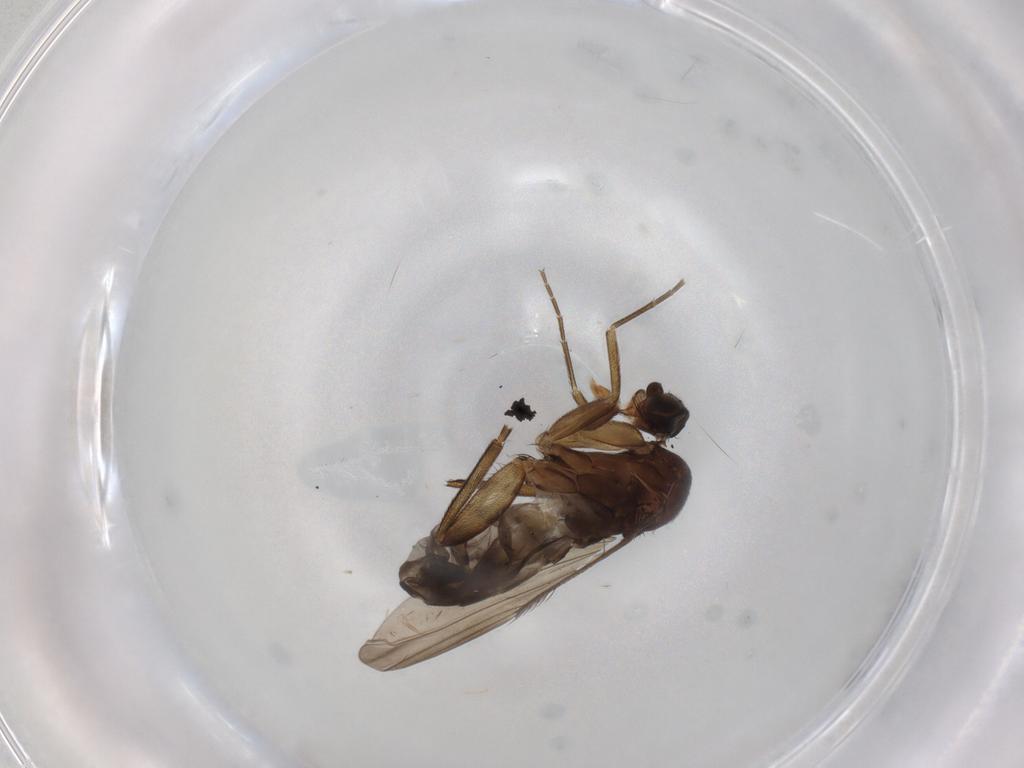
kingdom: Animalia
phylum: Arthropoda
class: Insecta
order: Diptera
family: Phoridae
